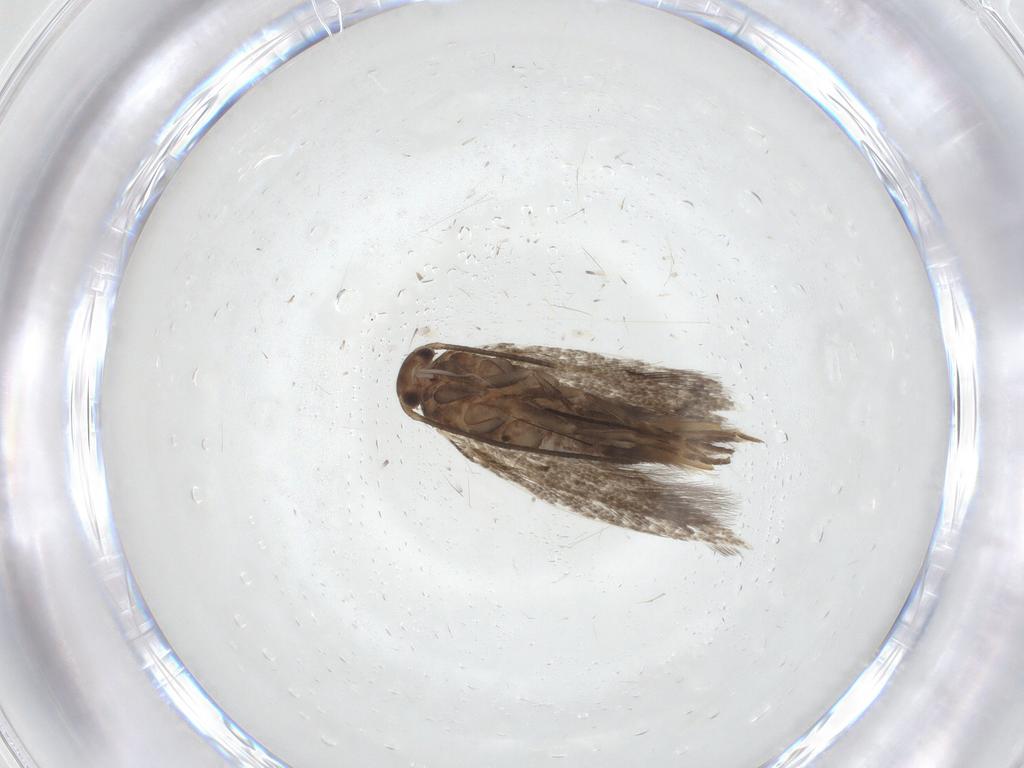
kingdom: Animalia
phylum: Arthropoda
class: Insecta
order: Lepidoptera
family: Elachistidae
